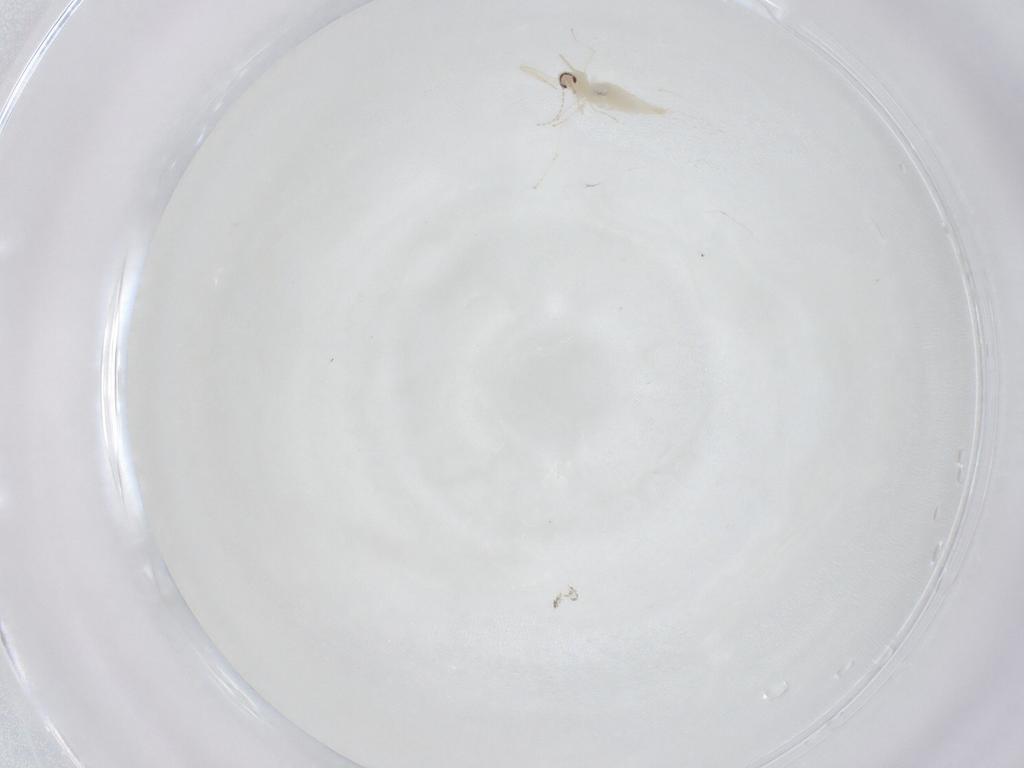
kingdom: Animalia
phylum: Arthropoda
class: Insecta
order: Diptera
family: Cecidomyiidae
